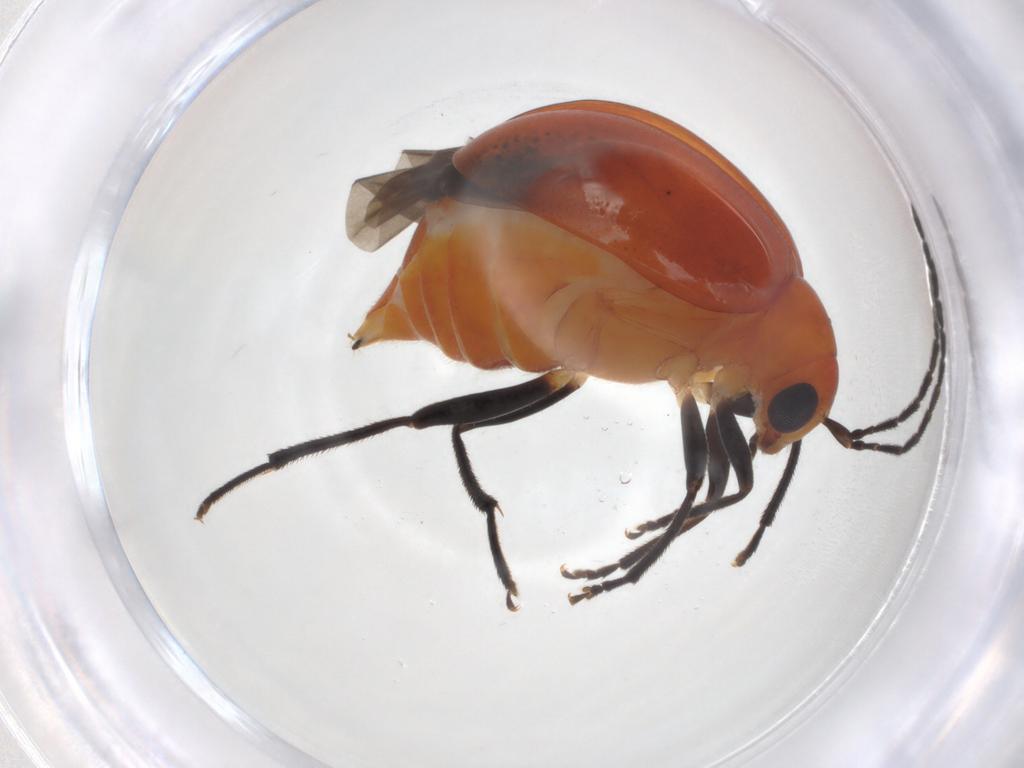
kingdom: Animalia
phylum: Arthropoda
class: Insecta
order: Coleoptera
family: Chrysomelidae
